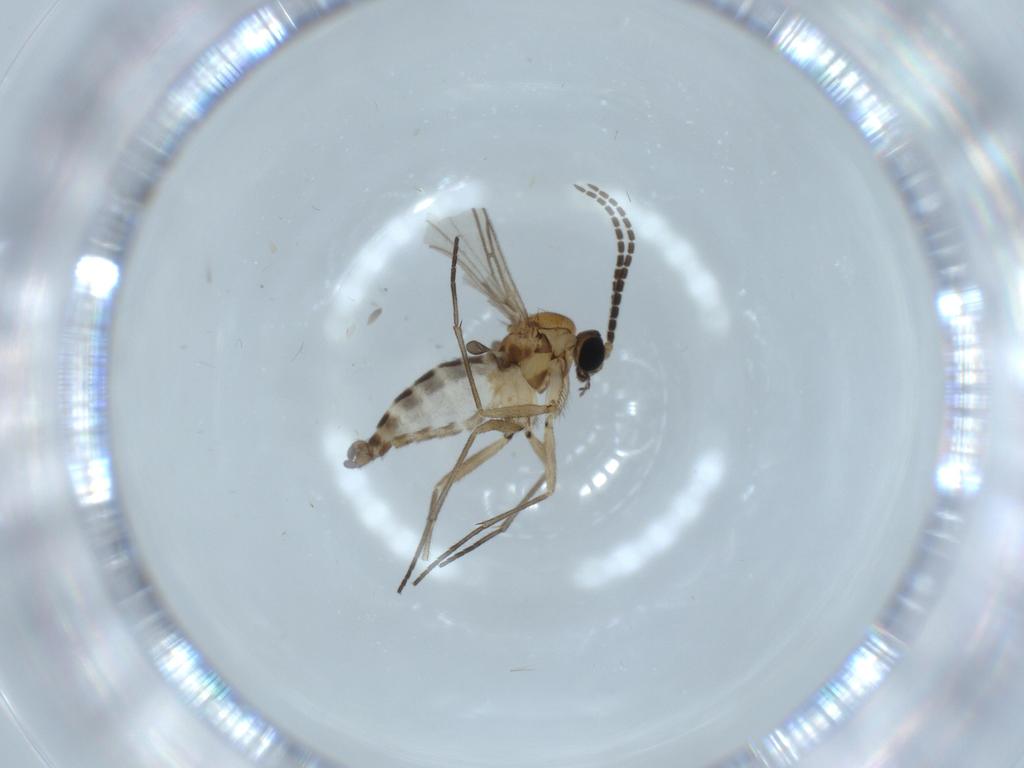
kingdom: Animalia
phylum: Arthropoda
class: Insecta
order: Diptera
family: Sciaridae
